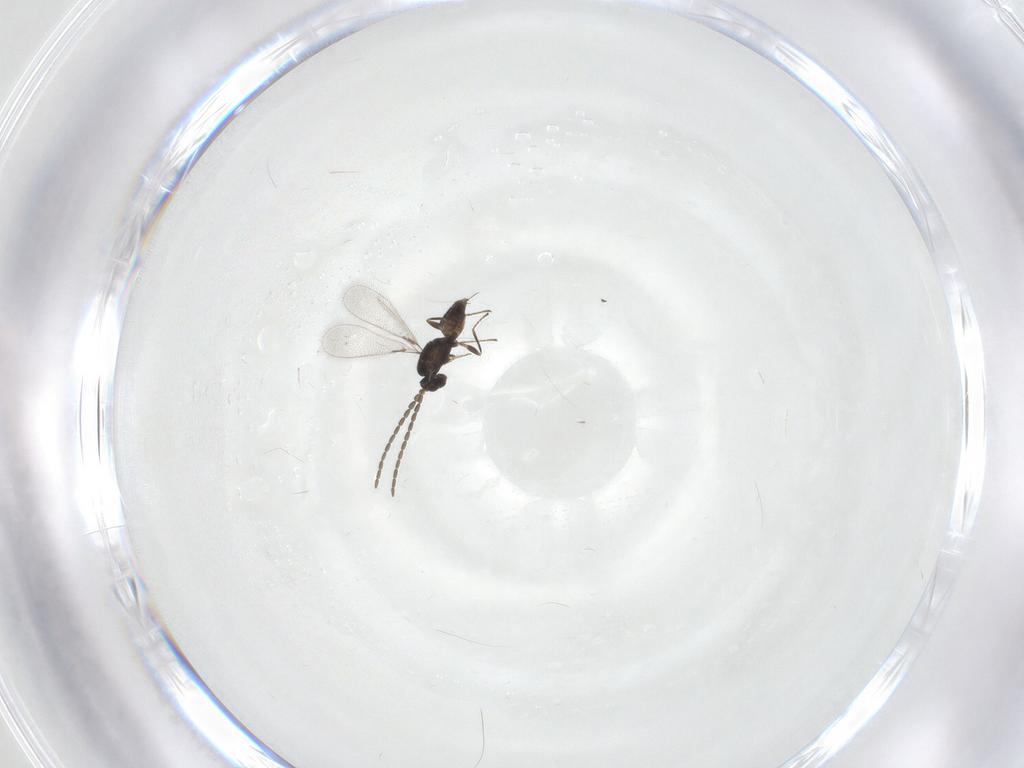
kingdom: Animalia
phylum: Arthropoda
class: Insecta
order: Hymenoptera
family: Mymaridae
